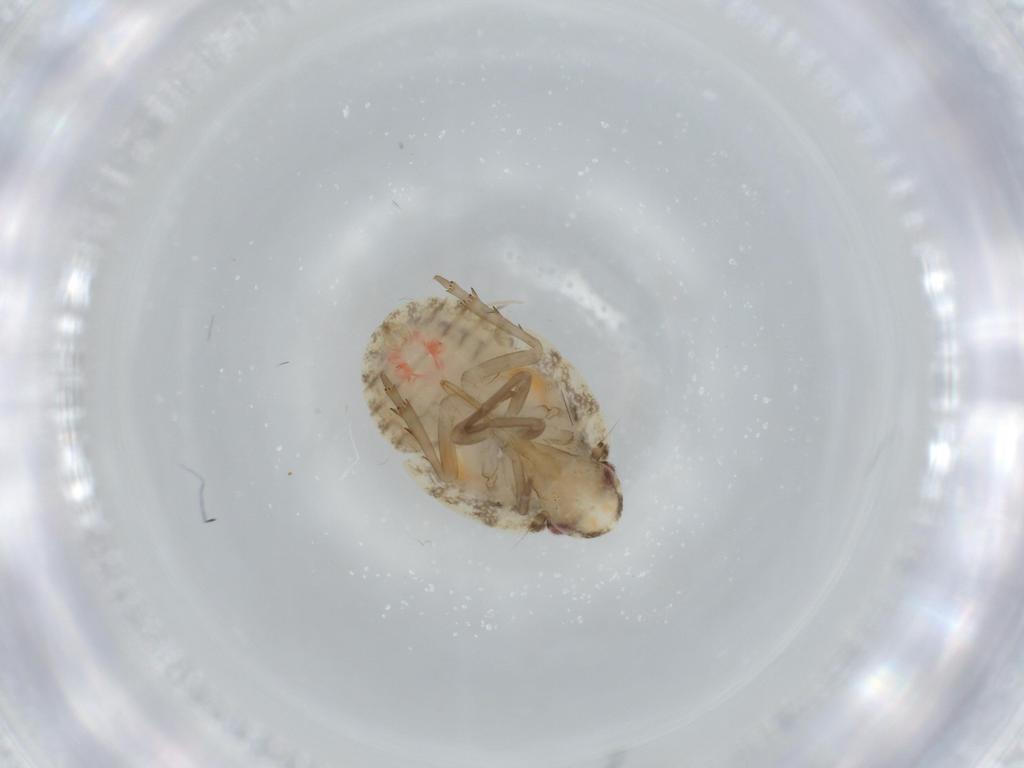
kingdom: Animalia
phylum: Arthropoda
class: Insecta
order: Hemiptera
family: Flatidae
